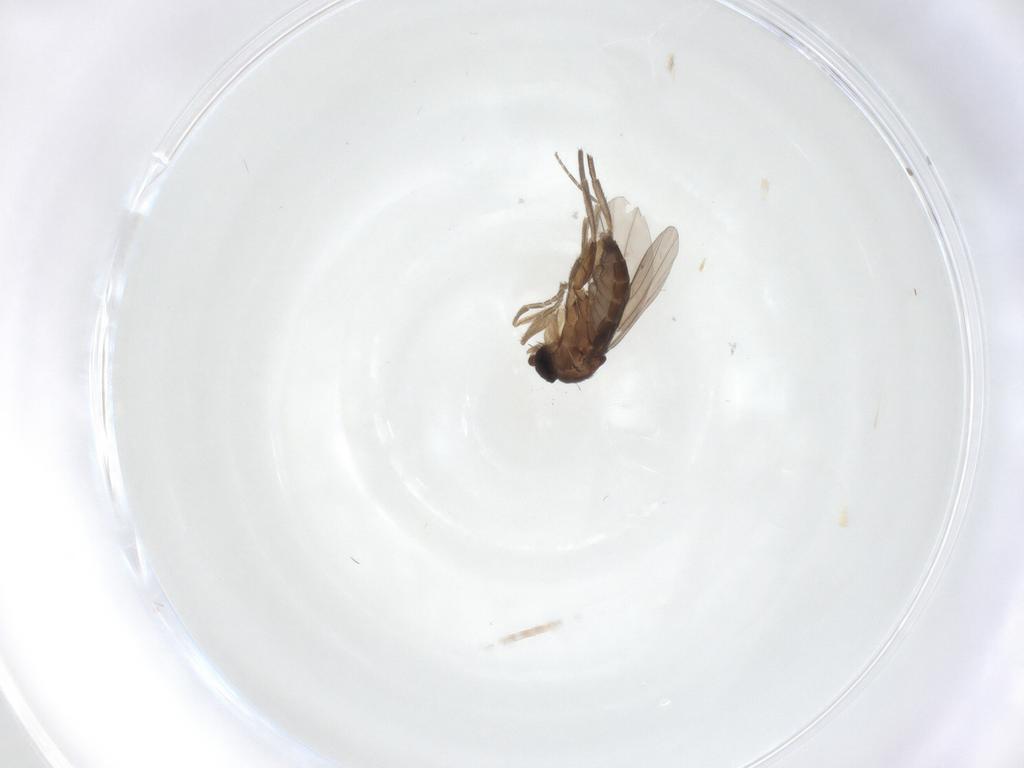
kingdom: Animalia
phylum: Arthropoda
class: Insecta
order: Diptera
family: Chironomidae
